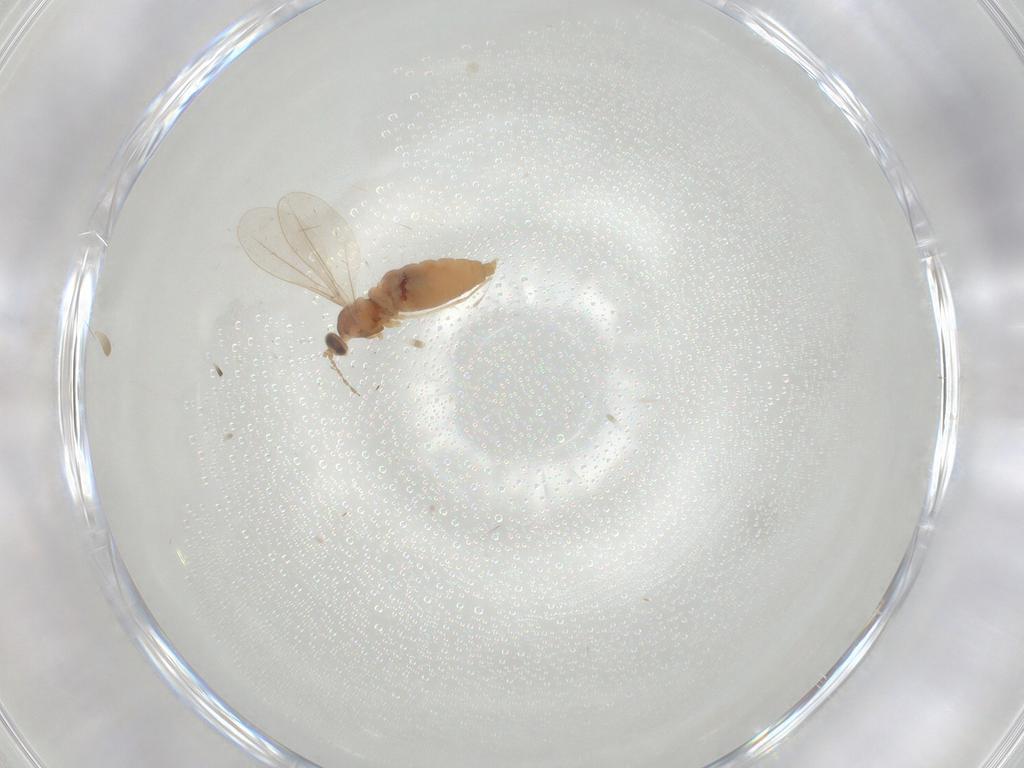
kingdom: Animalia
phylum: Arthropoda
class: Insecta
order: Diptera
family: Cecidomyiidae
